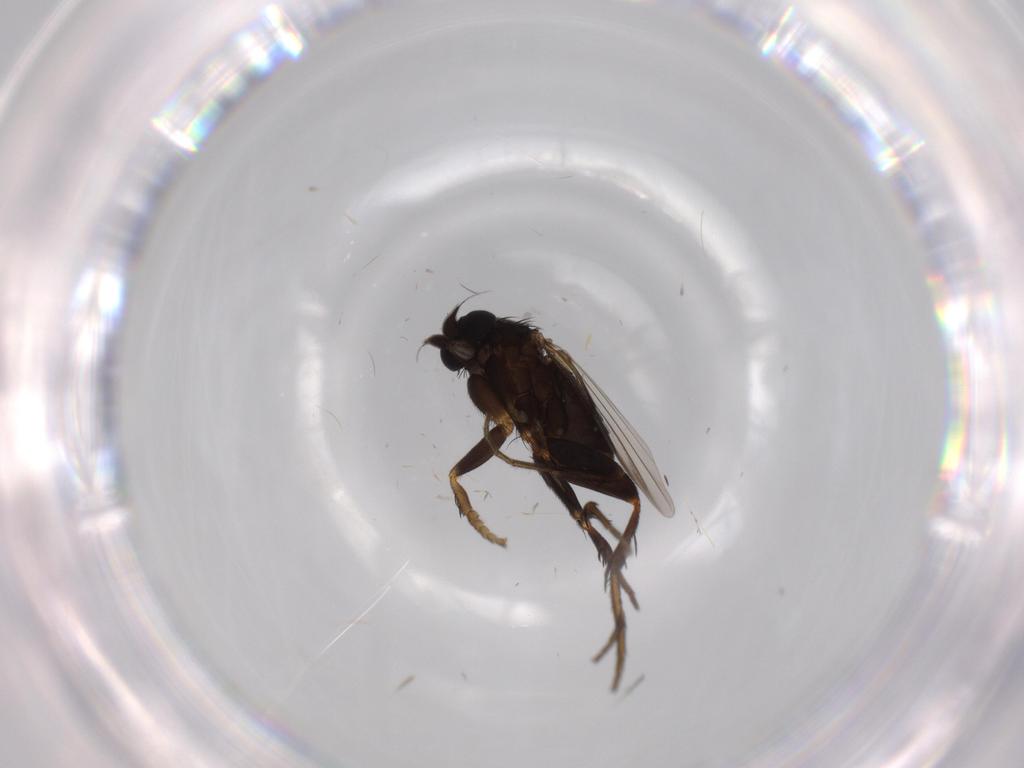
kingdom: Animalia
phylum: Arthropoda
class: Insecta
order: Diptera
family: Phoridae
